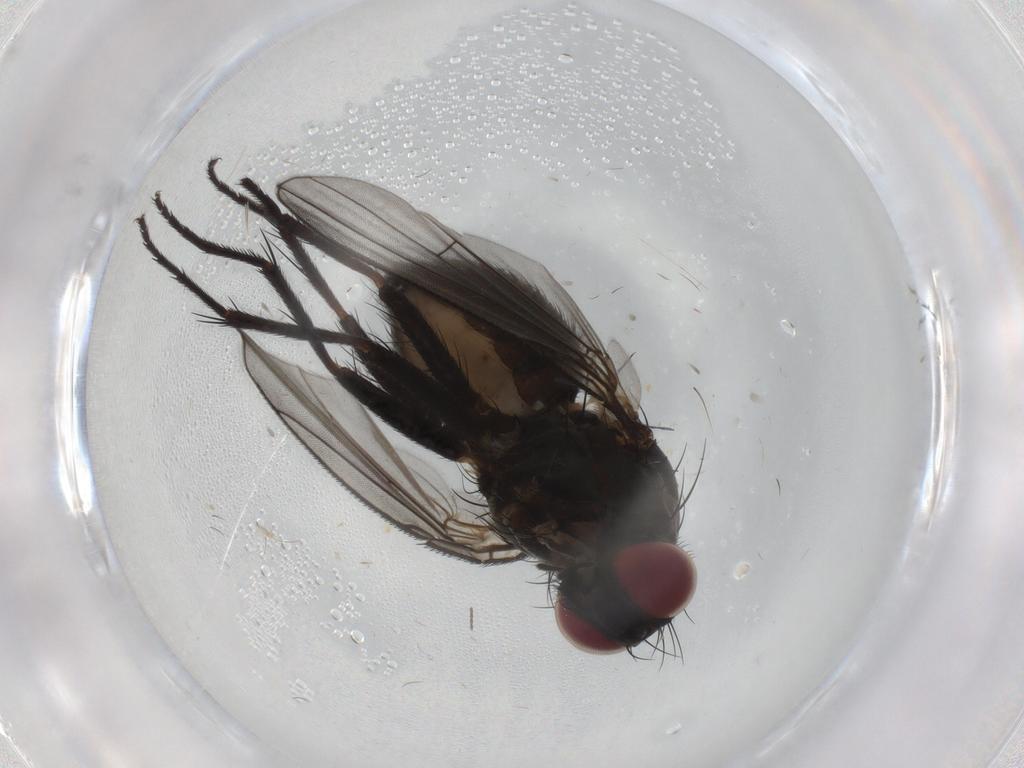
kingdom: Animalia
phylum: Arthropoda
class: Insecta
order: Diptera
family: Muscidae
